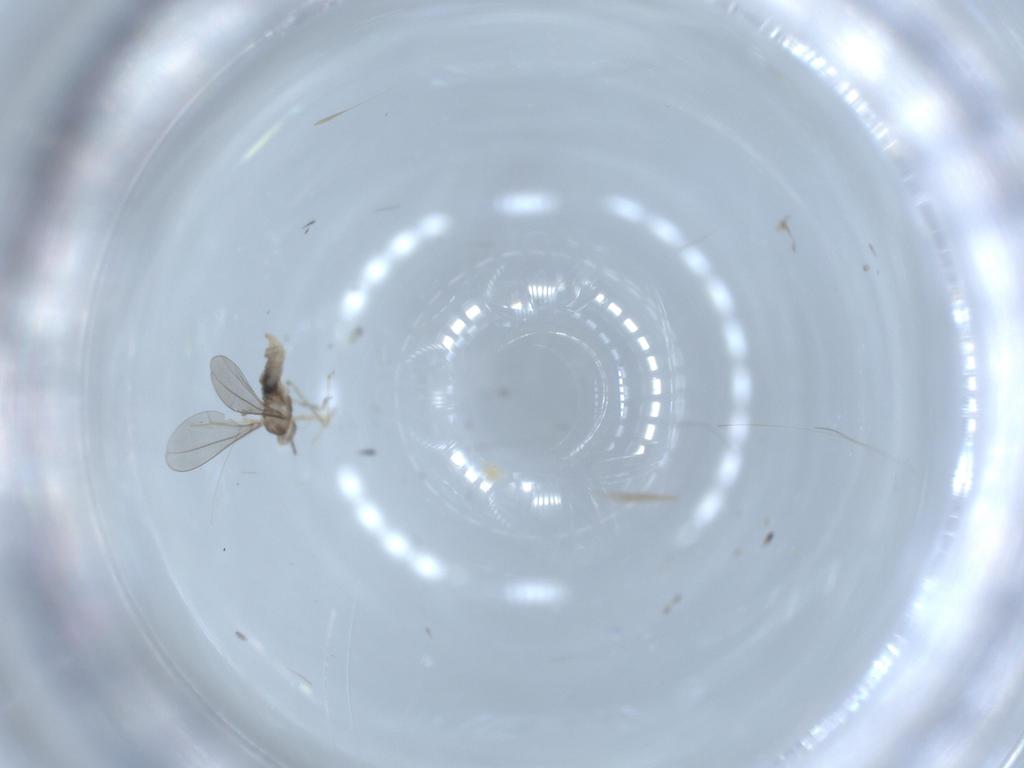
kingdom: Animalia
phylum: Arthropoda
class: Insecta
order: Diptera
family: Cecidomyiidae
